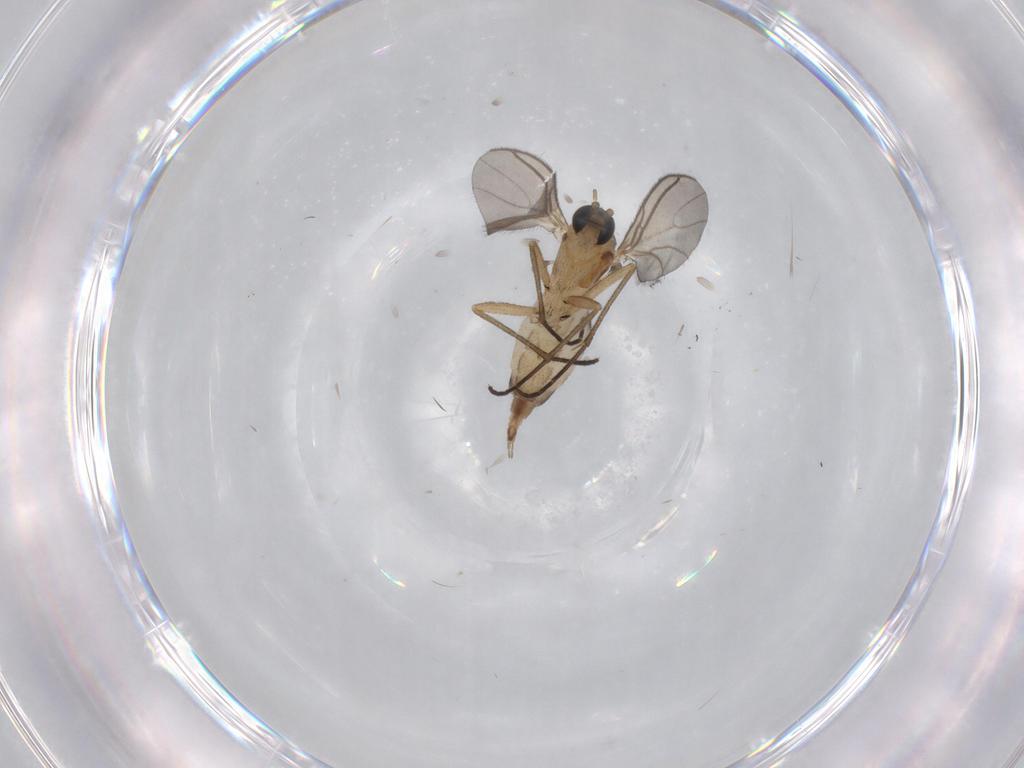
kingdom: Animalia
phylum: Arthropoda
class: Insecta
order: Diptera
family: Sciaridae
